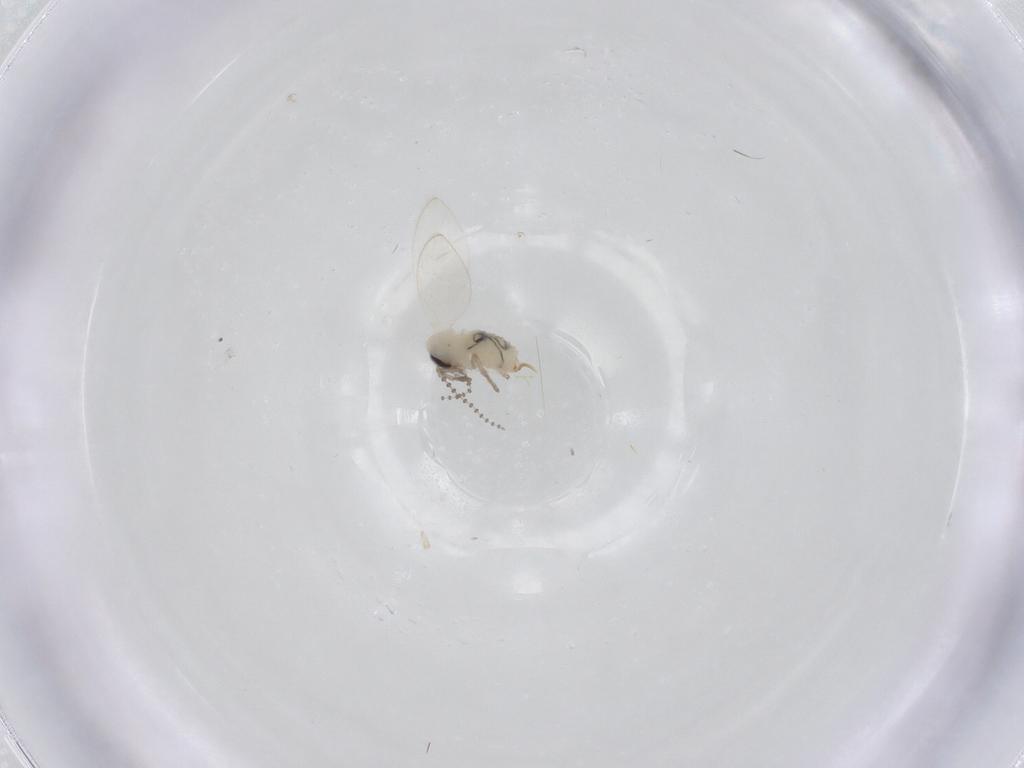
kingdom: Animalia
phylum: Arthropoda
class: Insecta
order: Diptera
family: Psychodidae
